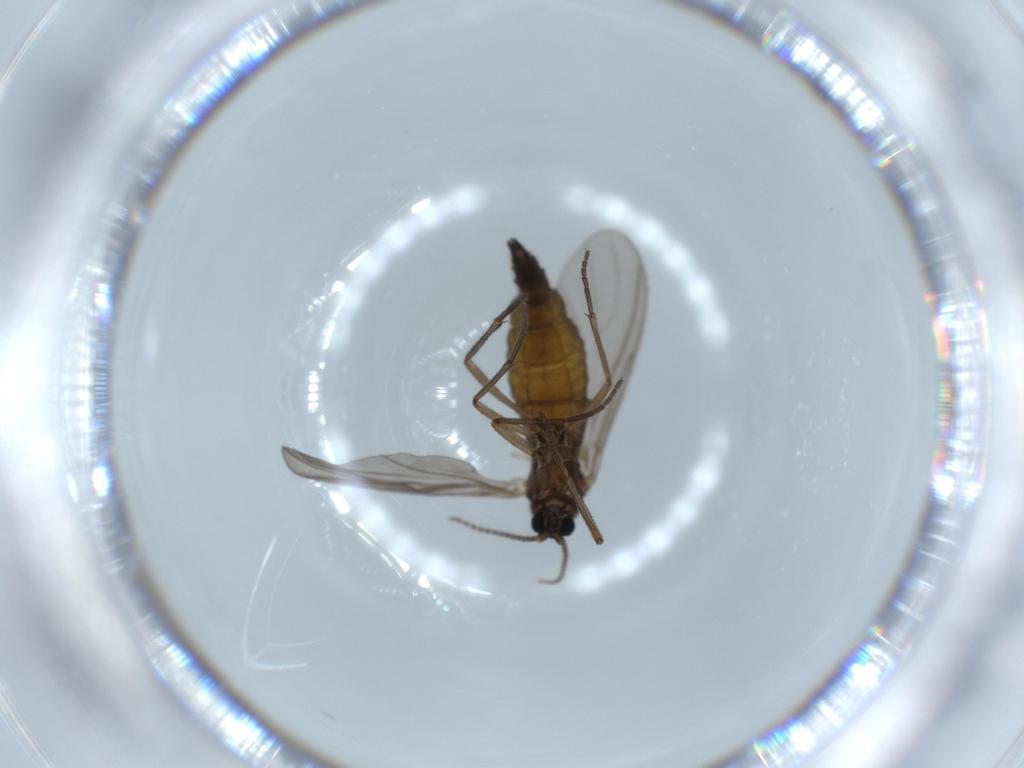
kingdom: Animalia
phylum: Arthropoda
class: Insecta
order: Diptera
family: Sciaridae
